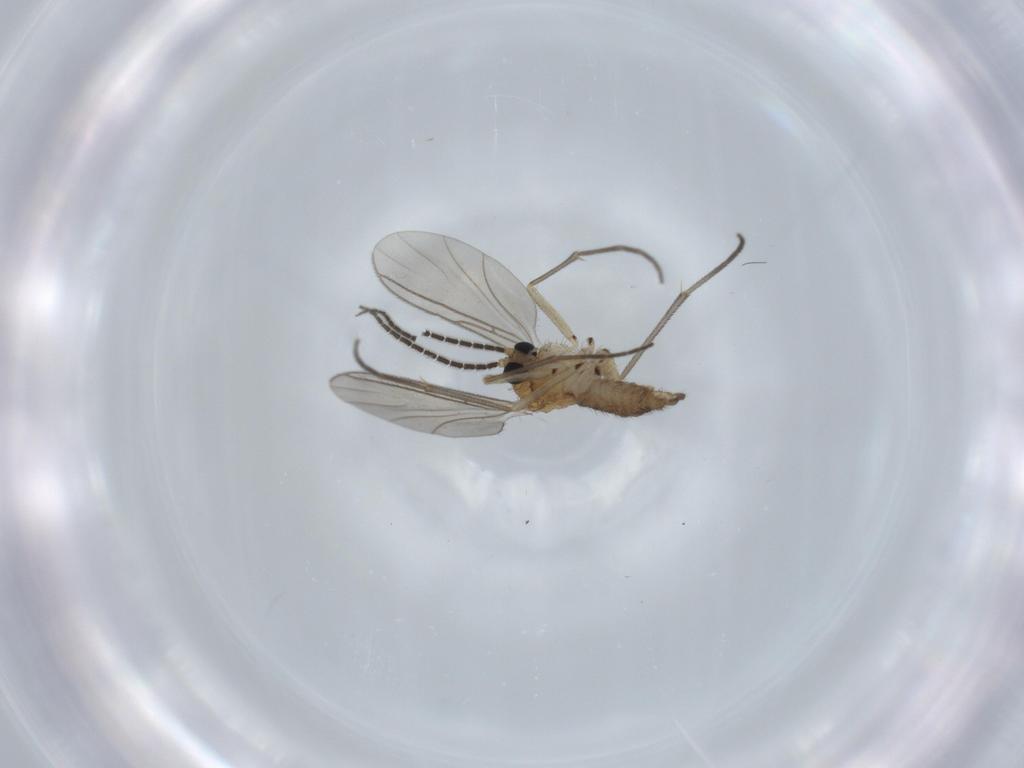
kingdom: Animalia
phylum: Arthropoda
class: Insecta
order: Diptera
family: Sciaridae
